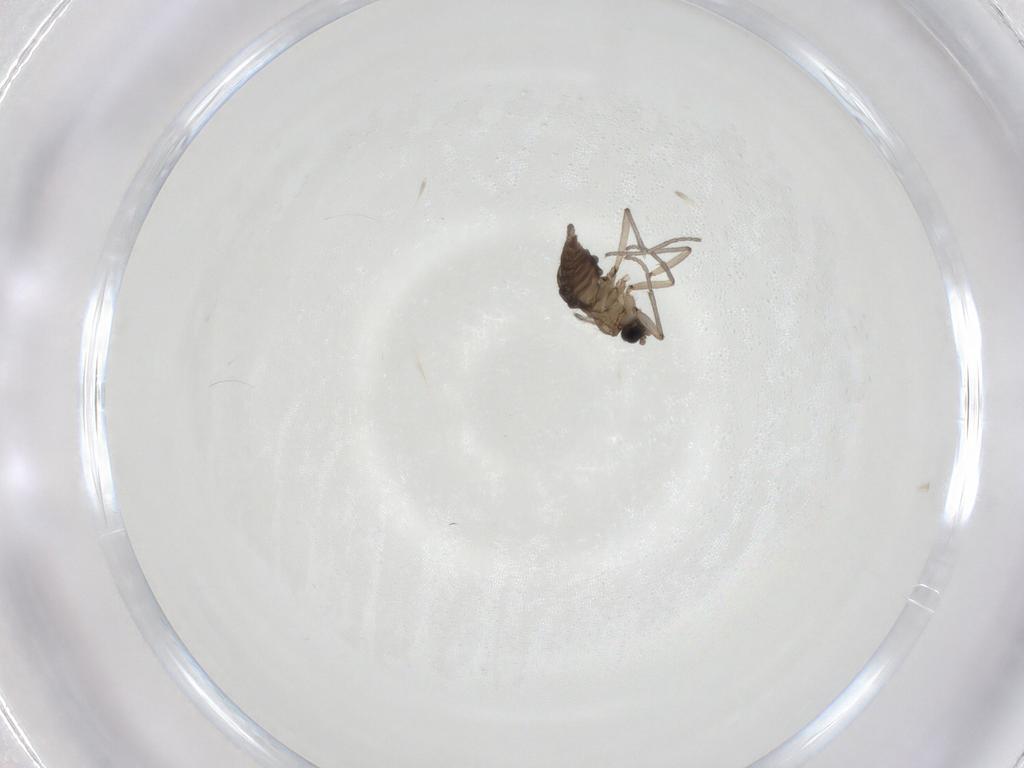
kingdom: Animalia
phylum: Arthropoda
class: Insecta
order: Diptera
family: Sciaridae
